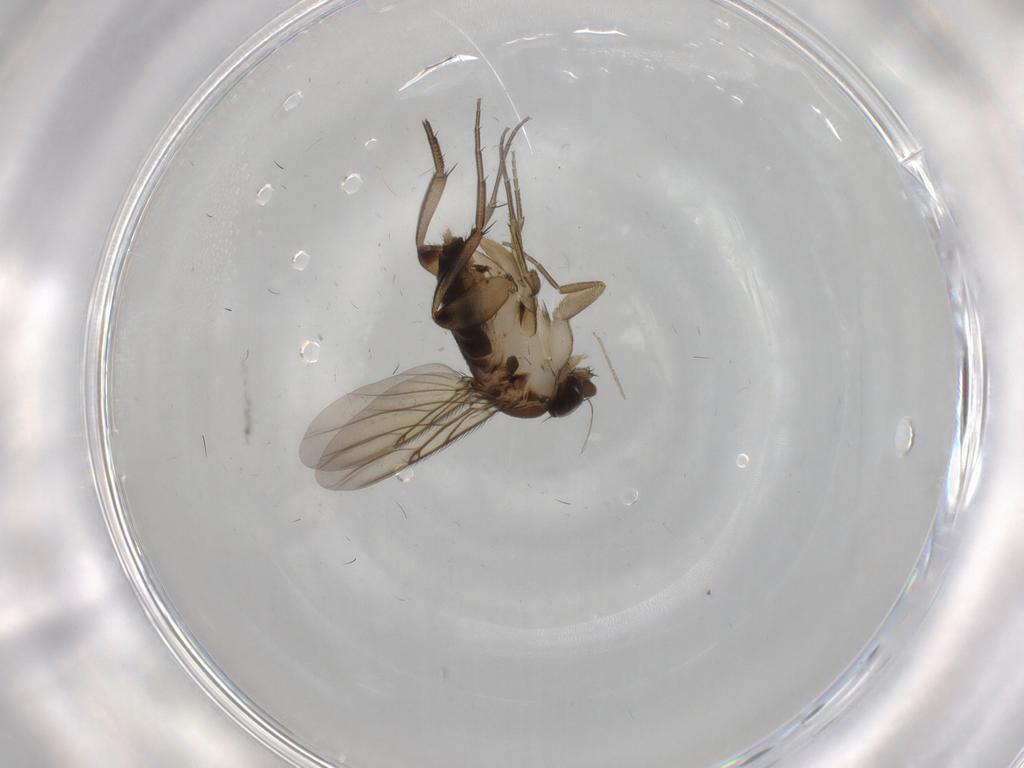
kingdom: Animalia
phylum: Arthropoda
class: Insecta
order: Diptera
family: Phoridae
